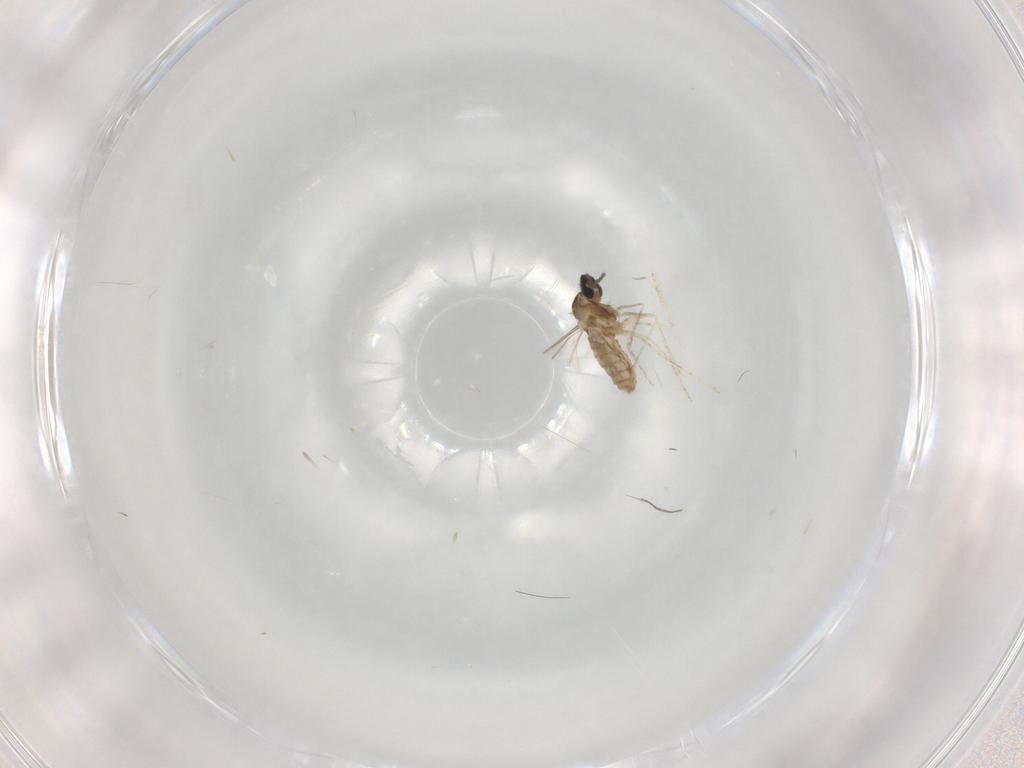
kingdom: Animalia
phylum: Arthropoda
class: Insecta
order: Diptera
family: Cecidomyiidae
